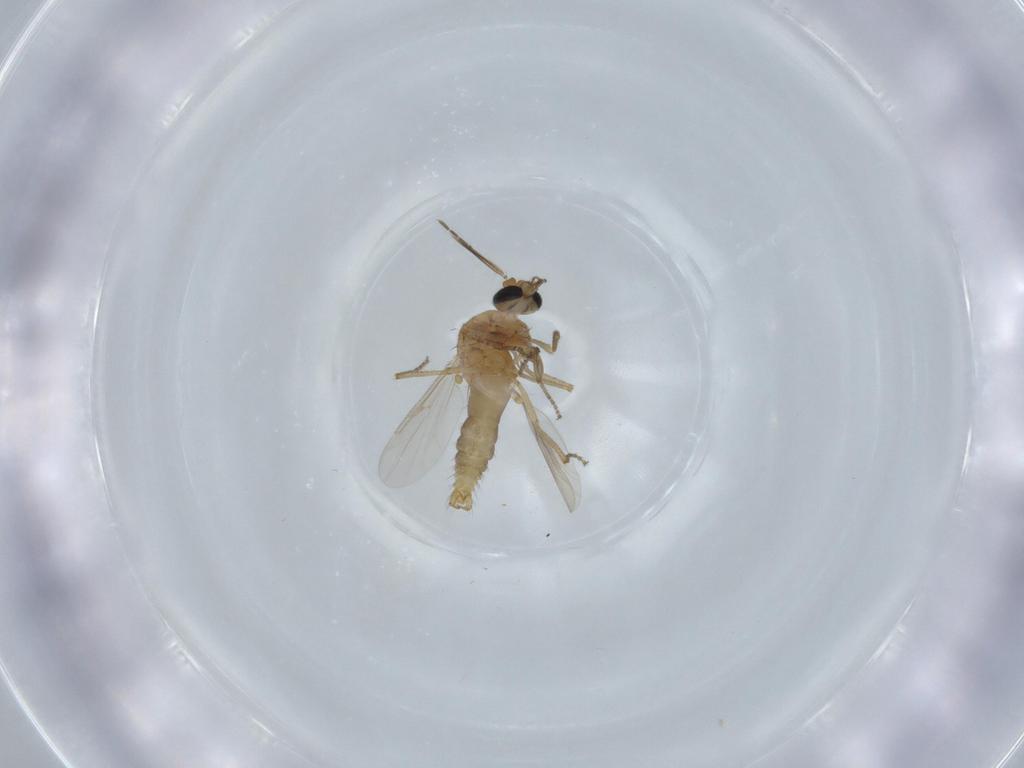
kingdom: Animalia
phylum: Arthropoda
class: Insecta
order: Diptera
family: Ceratopogonidae
